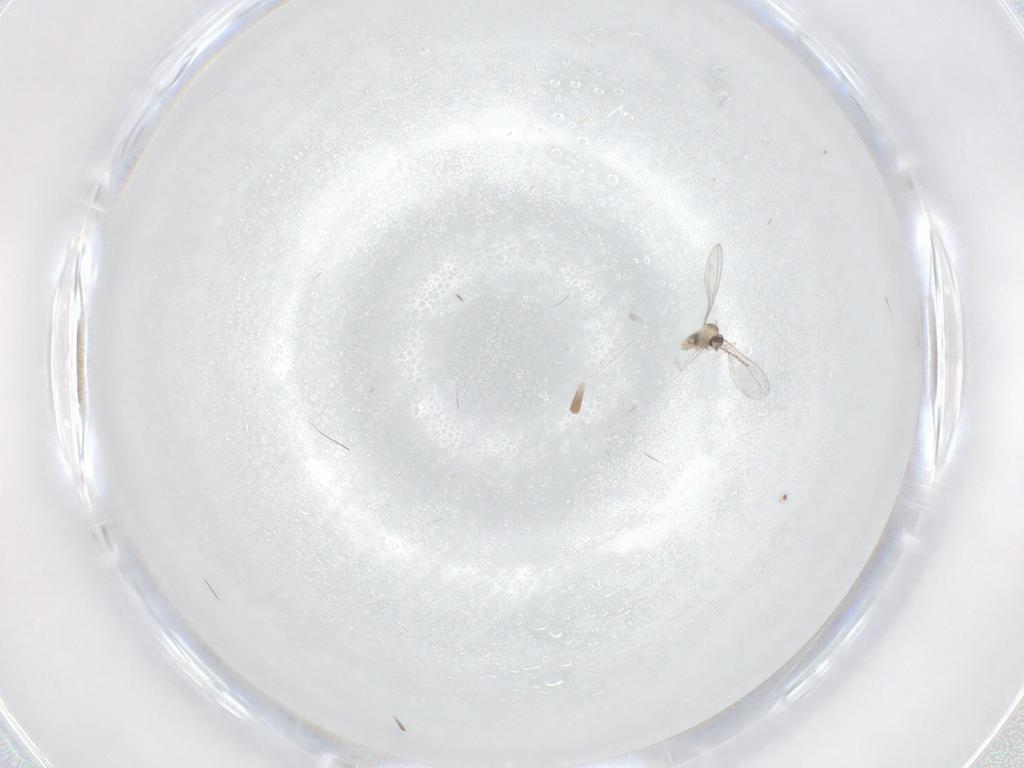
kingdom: Animalia
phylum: Arthropoda
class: Insecta
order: Diptera
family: Cecidomyiidae
